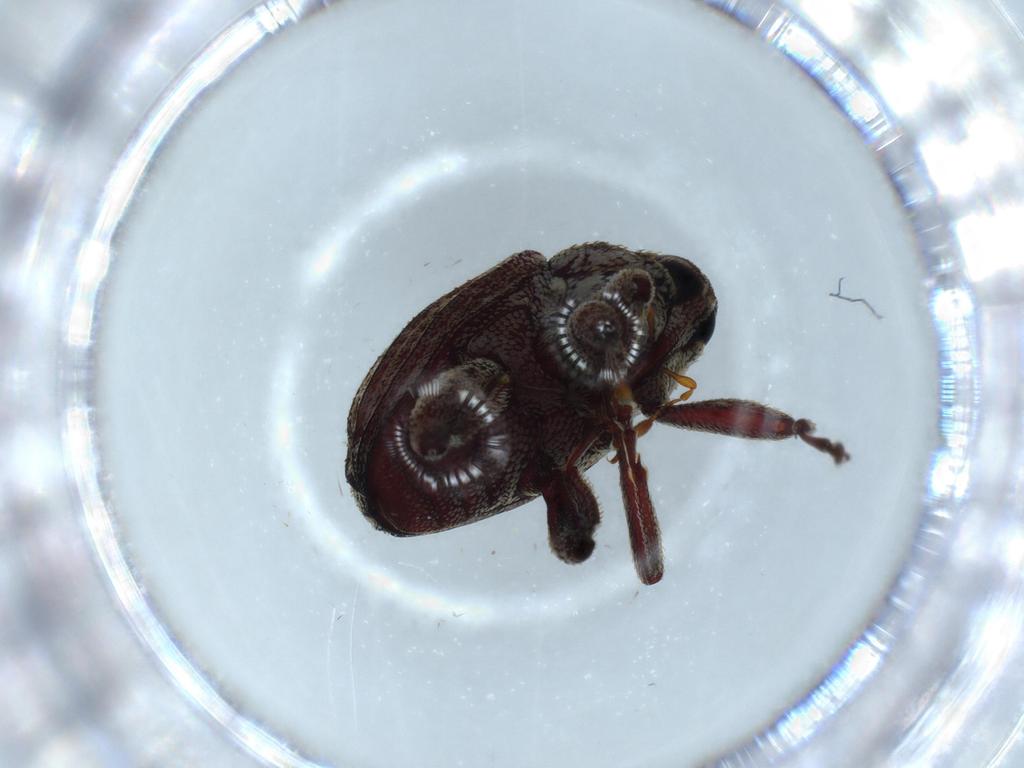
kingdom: Animalia
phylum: Arthropoda
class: Insecta
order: Coleoptera
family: Curculionidae
